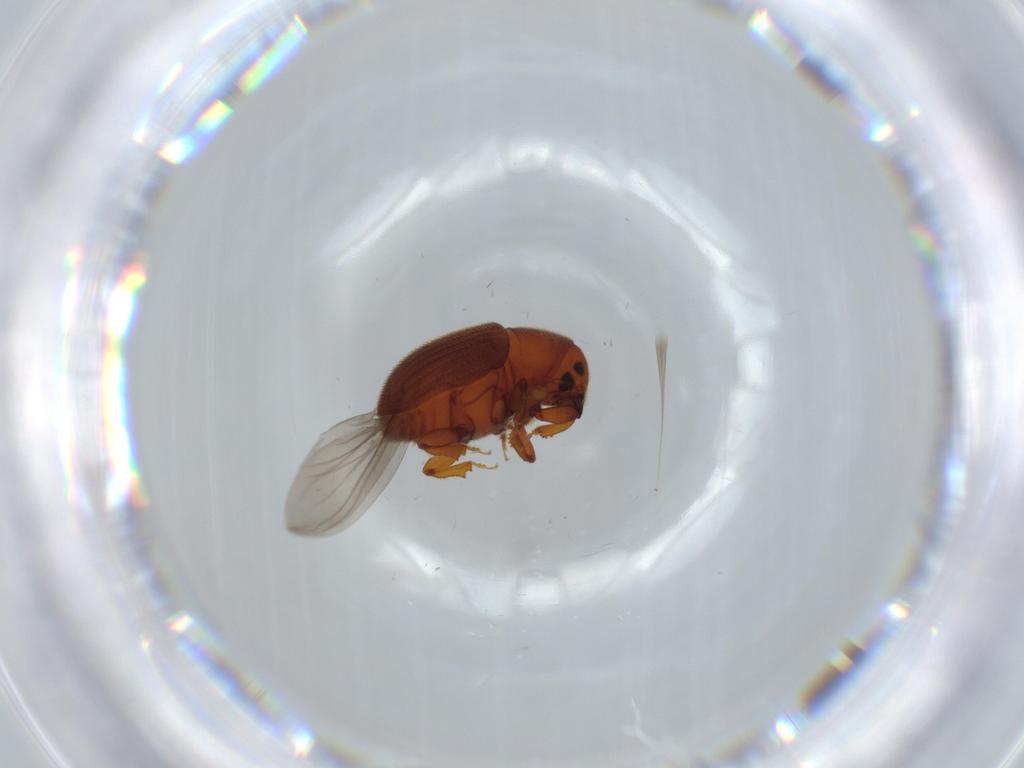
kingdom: Animalia
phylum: Arthropoda
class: Insecta
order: Coleoptera
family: Curculionidae
